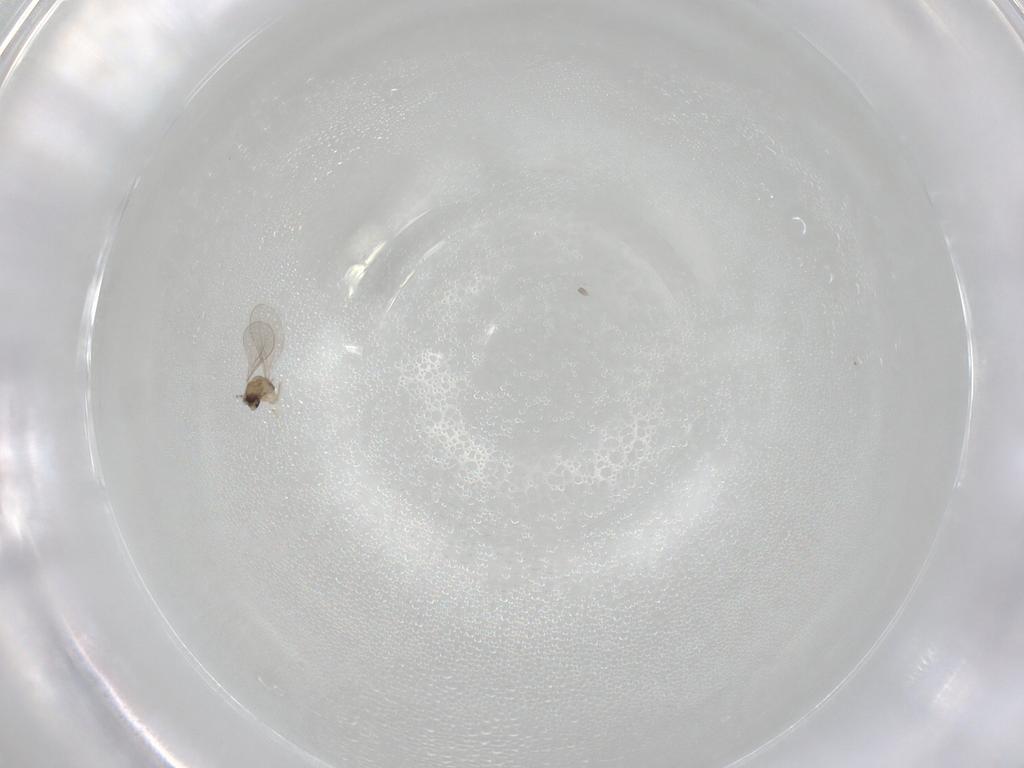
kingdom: Animalia
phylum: Arthropoda
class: Insecta
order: Diptera
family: Cecidomyiidae
